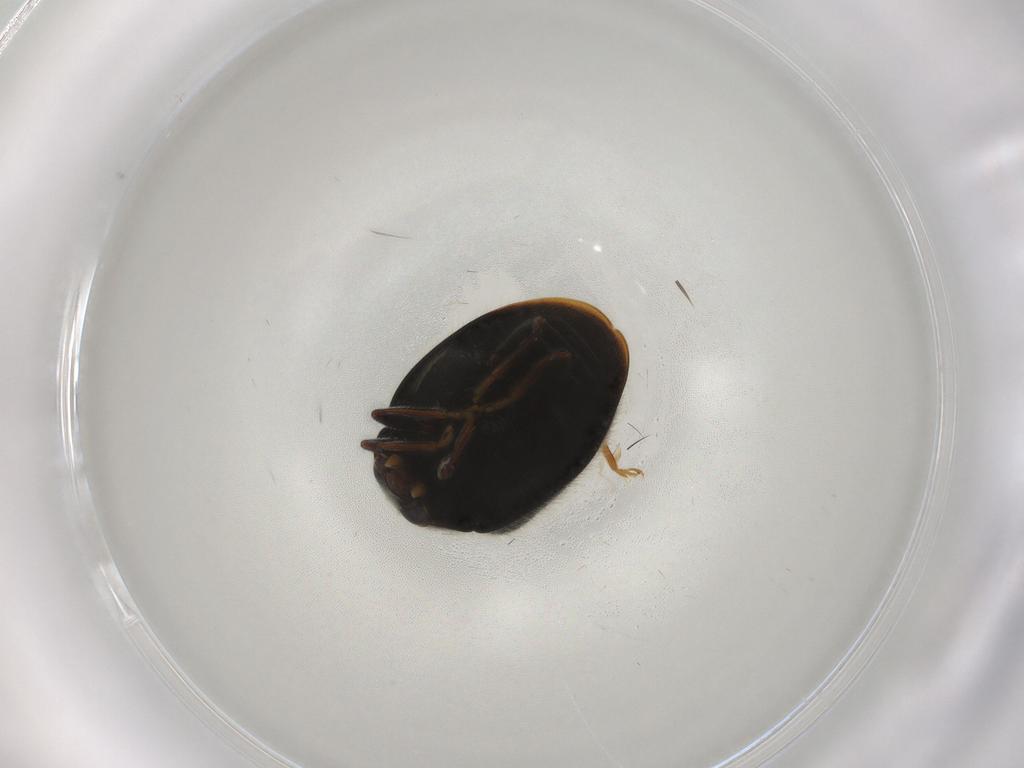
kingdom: Animalia
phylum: Arthropoda
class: Insecta
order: Coleoptera
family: Coccinellidae
